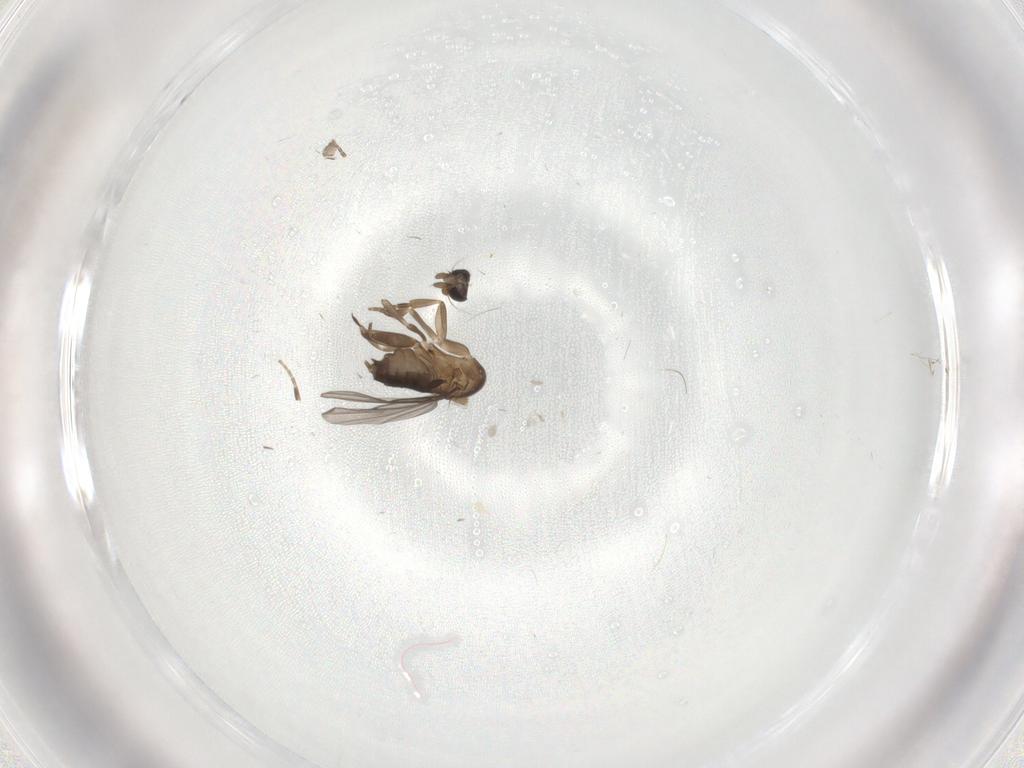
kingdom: Animalia
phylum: Arthropoda
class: Insecta
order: Diptera
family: Phoridae
